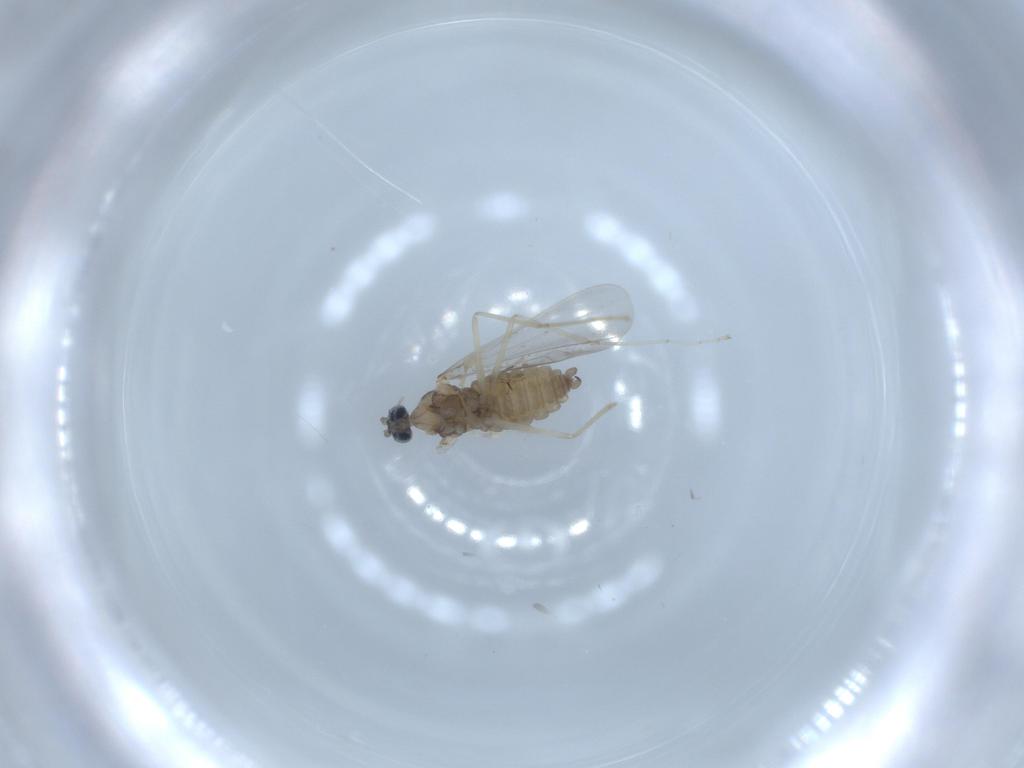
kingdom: Animalia
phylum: Arthropoda
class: Insecta
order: Diptera
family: Cecidomyiidae
